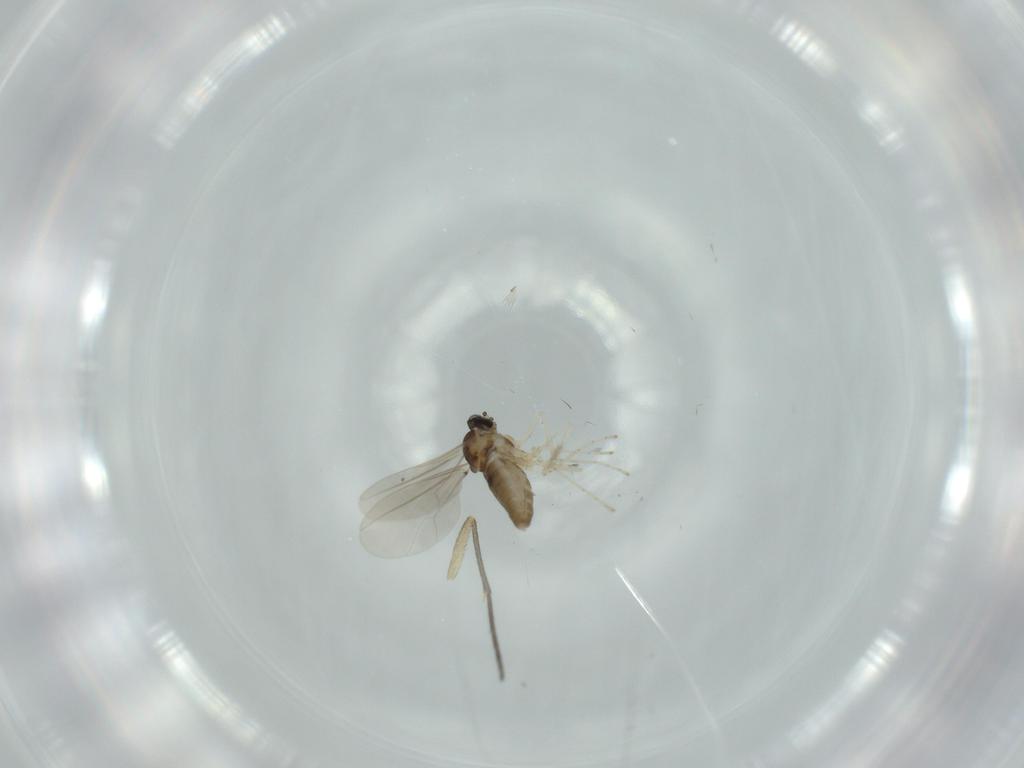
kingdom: Animalia
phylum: Arthropoda
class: Insecta
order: Diptera
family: Sciaridae
